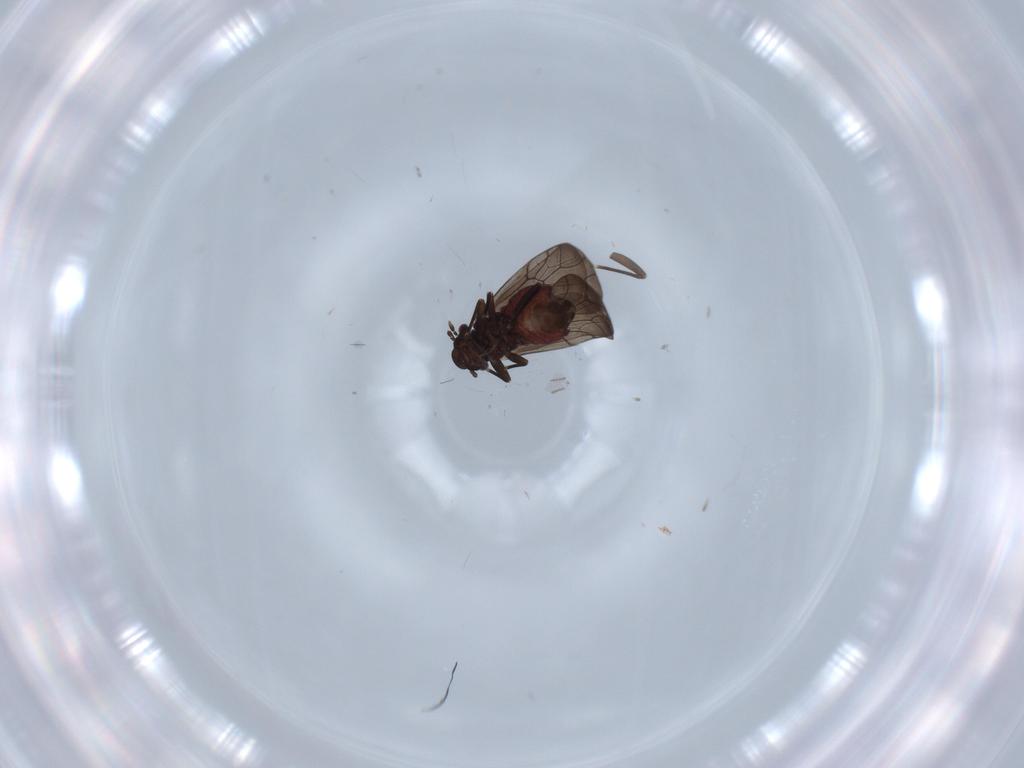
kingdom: Animalia
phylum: Arthropoda
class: Insecta
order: Psocodea
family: Lepidopsocidae
